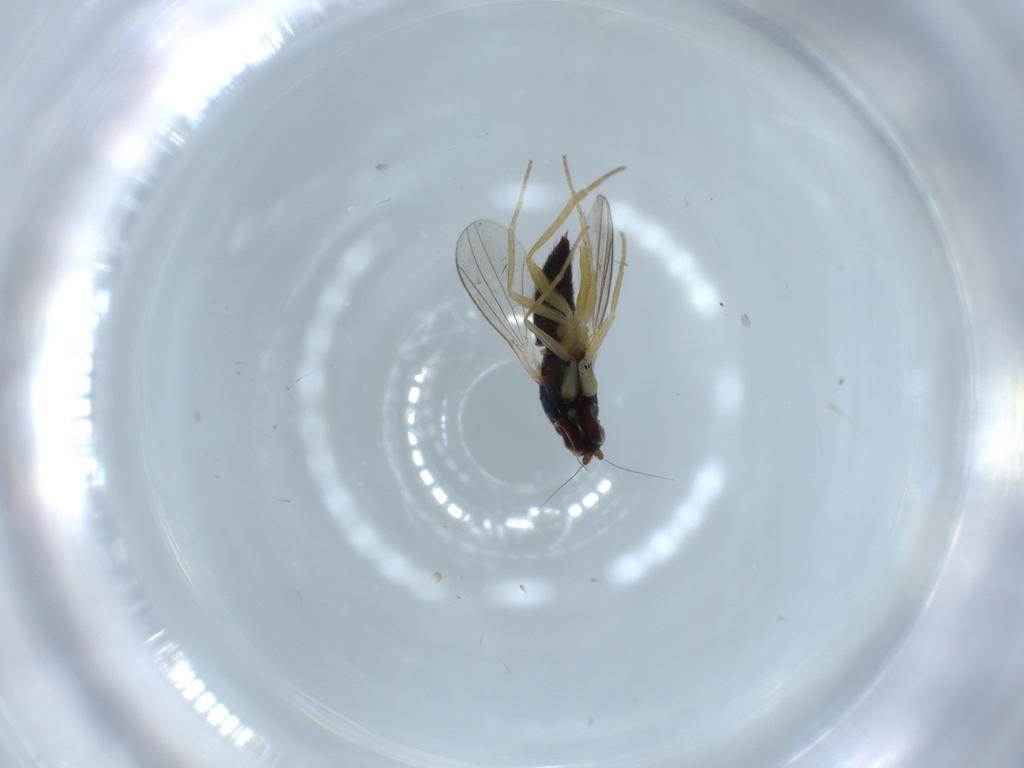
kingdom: Animalia
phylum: Arthropoda
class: Insecta
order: Diptera
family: Dolichopodidae
